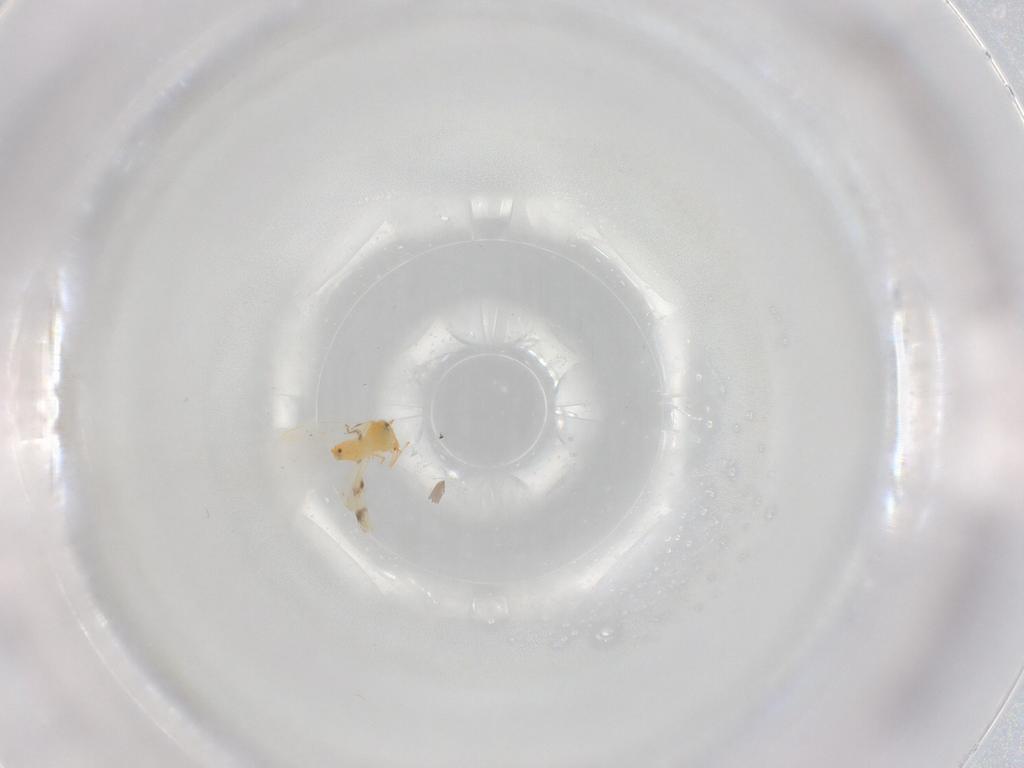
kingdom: Animalia
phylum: Arthropoda
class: Insecta
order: Hemiptera
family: Aleyrodidae
